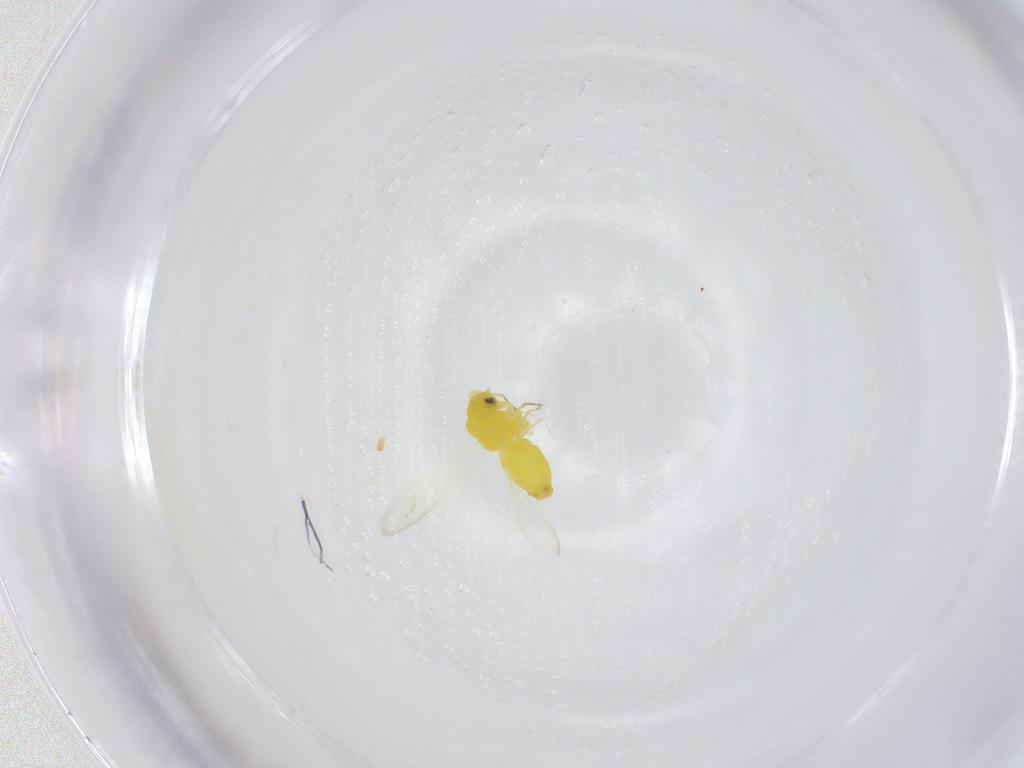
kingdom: Animalia
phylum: Arthropoda
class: Insecta
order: Hemiptera
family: Aleyrodidae
